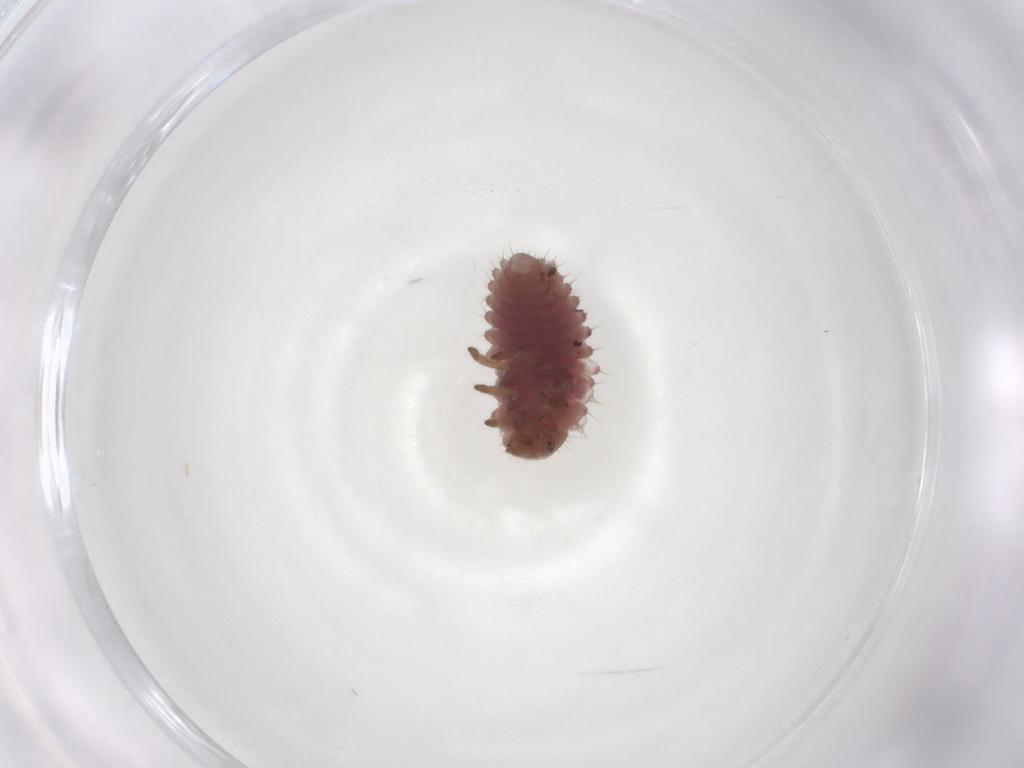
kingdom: Animalia
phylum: Arthropoda
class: Insecta
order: Coleoptera
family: Coccinellidae
